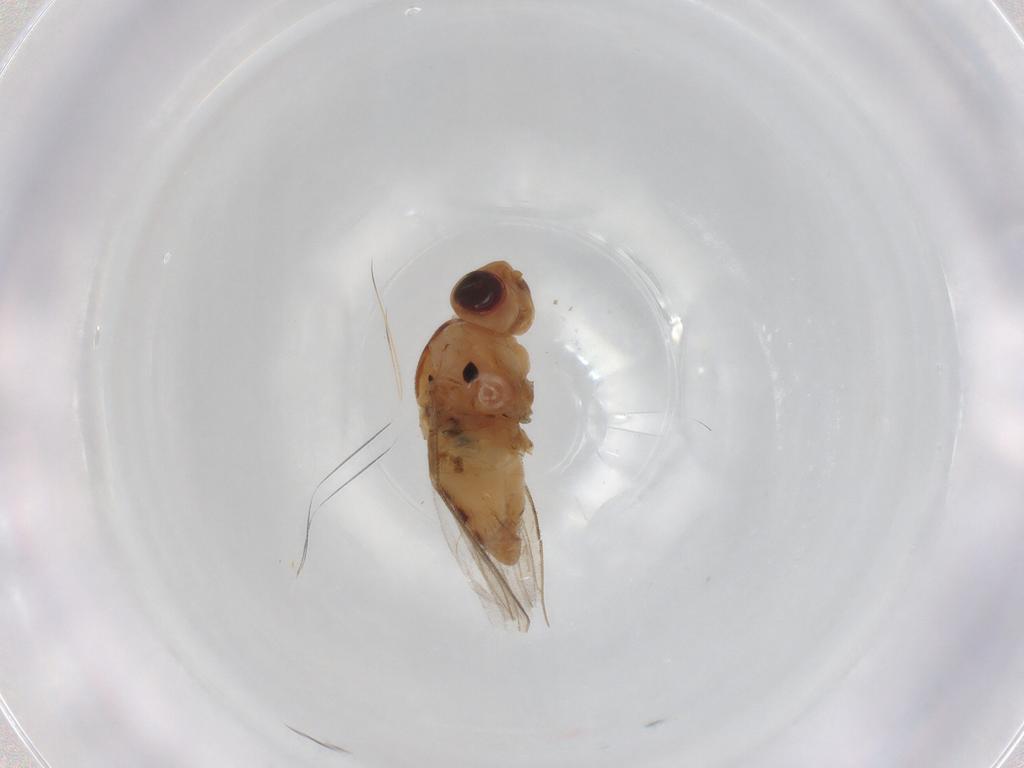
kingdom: Animalia
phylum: Arthropoda
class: Insecta
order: Diptera
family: Chloropidae
